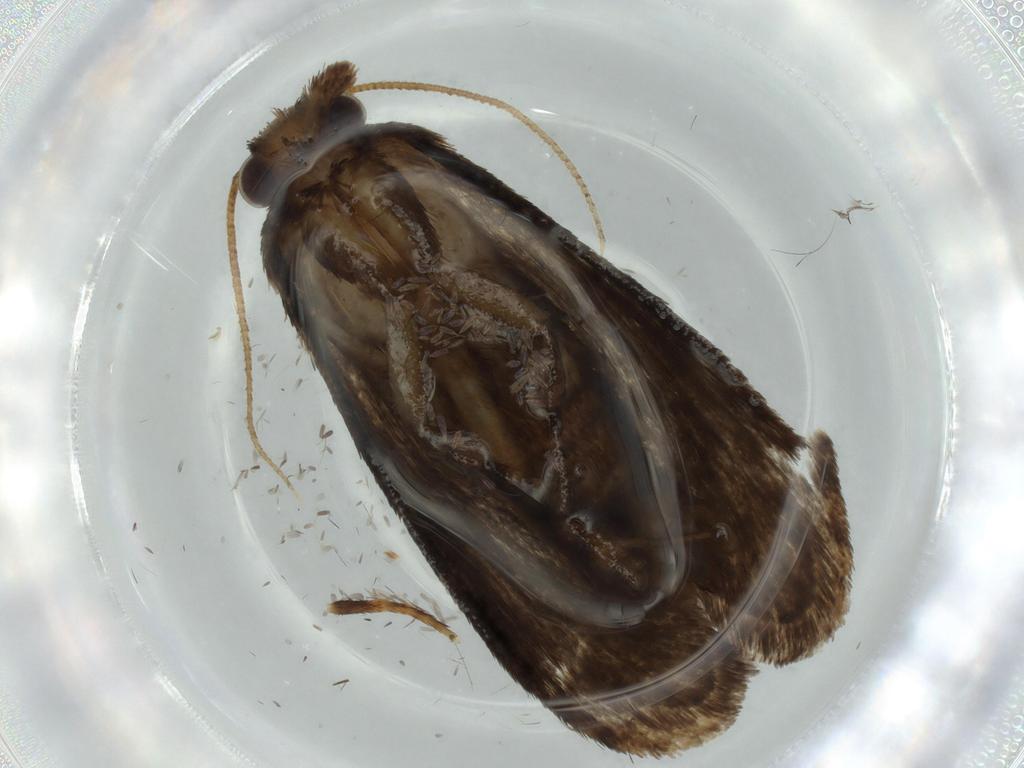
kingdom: Animalia
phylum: Arthropoda
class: Insecta
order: Lepidoptera
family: Tineidae
